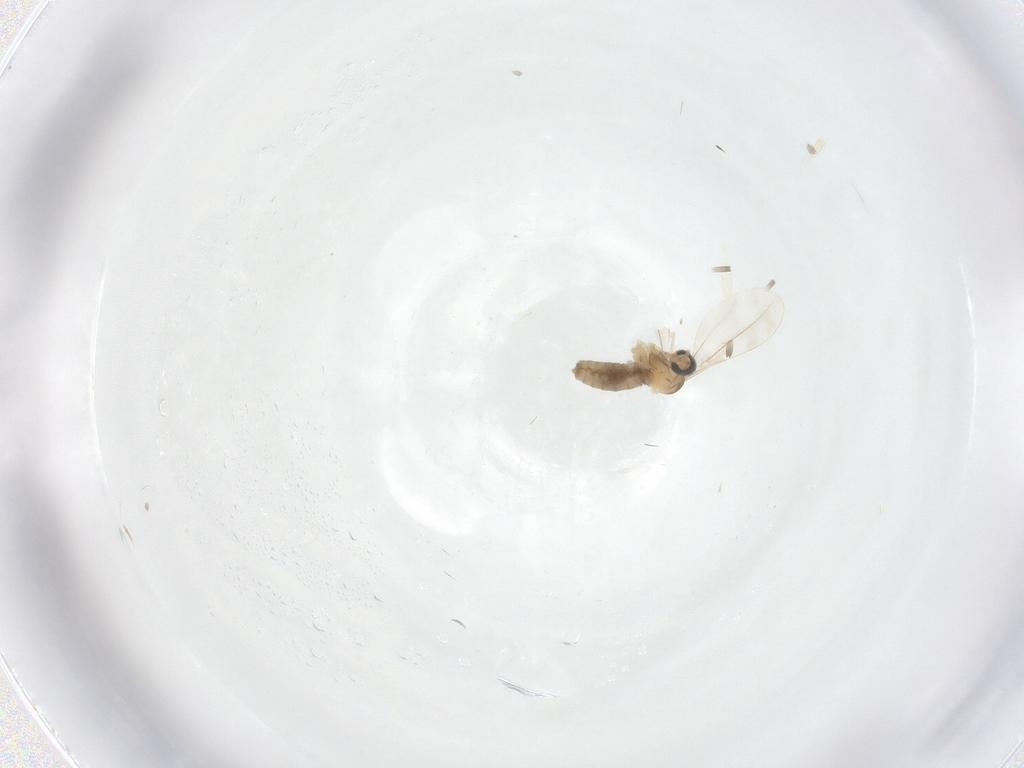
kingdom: Animalia
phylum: Arthropoda
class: Insecta
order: Diptera
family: Cecidomyiidae
